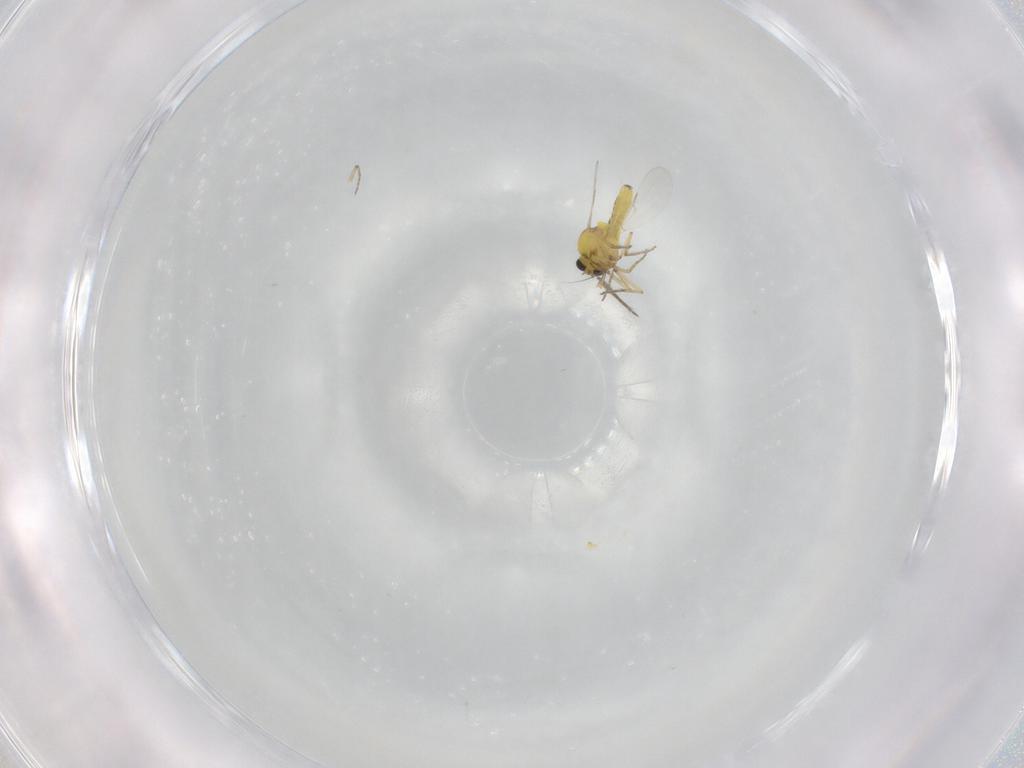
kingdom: Animalia
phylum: Arthropoda
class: Insecta
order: Diptera
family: Ceratopogonidae
